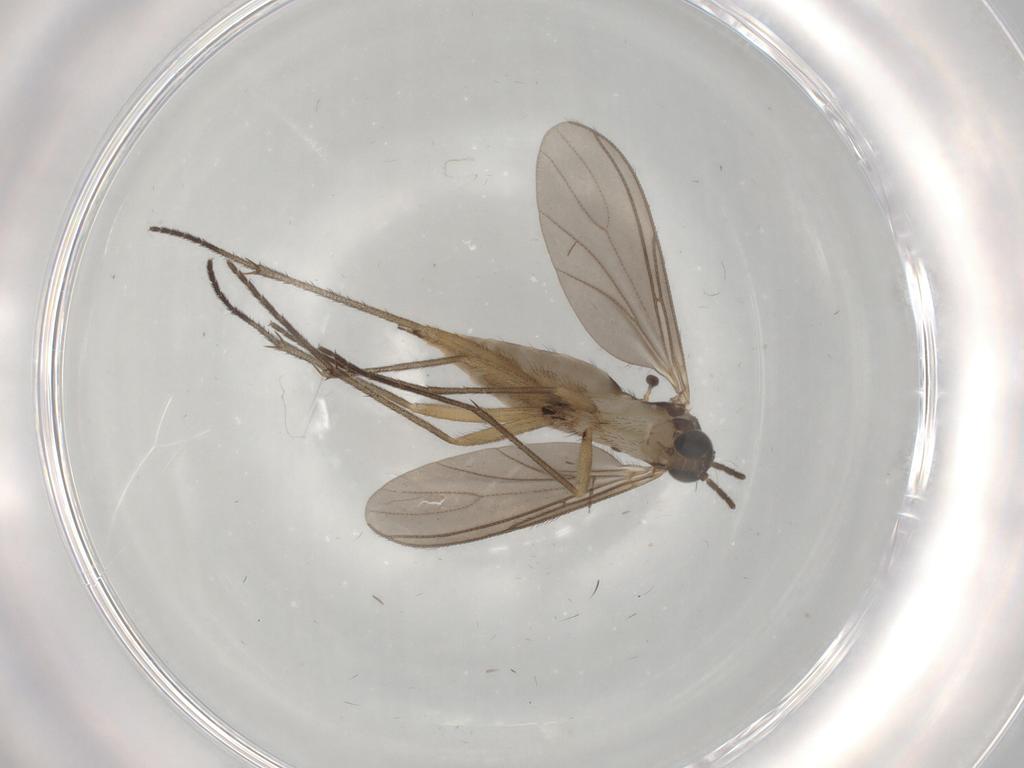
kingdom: Animalia
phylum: Arthropoda
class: Insecta
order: Diptera
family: Sciaridae
